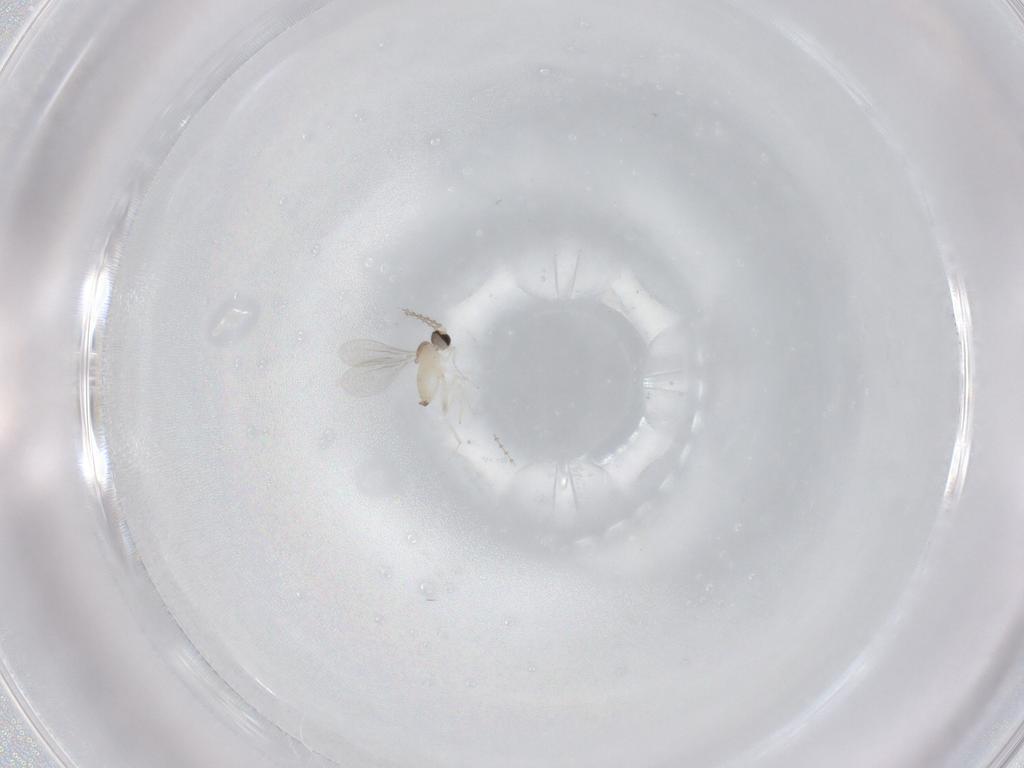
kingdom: Animalia
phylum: Arthropoda
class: Insecta
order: Diptera
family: Cecidomyiidae
